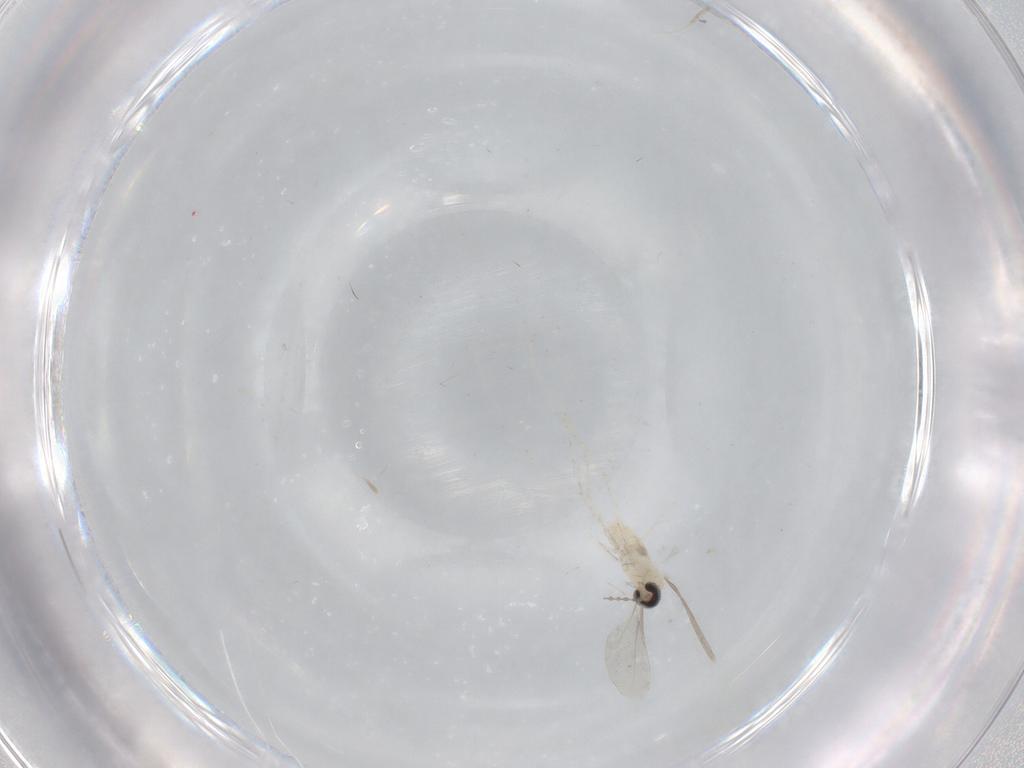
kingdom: Animalia
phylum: Arthropoda
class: Insecta
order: Diptera
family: Cecidomyiidae
